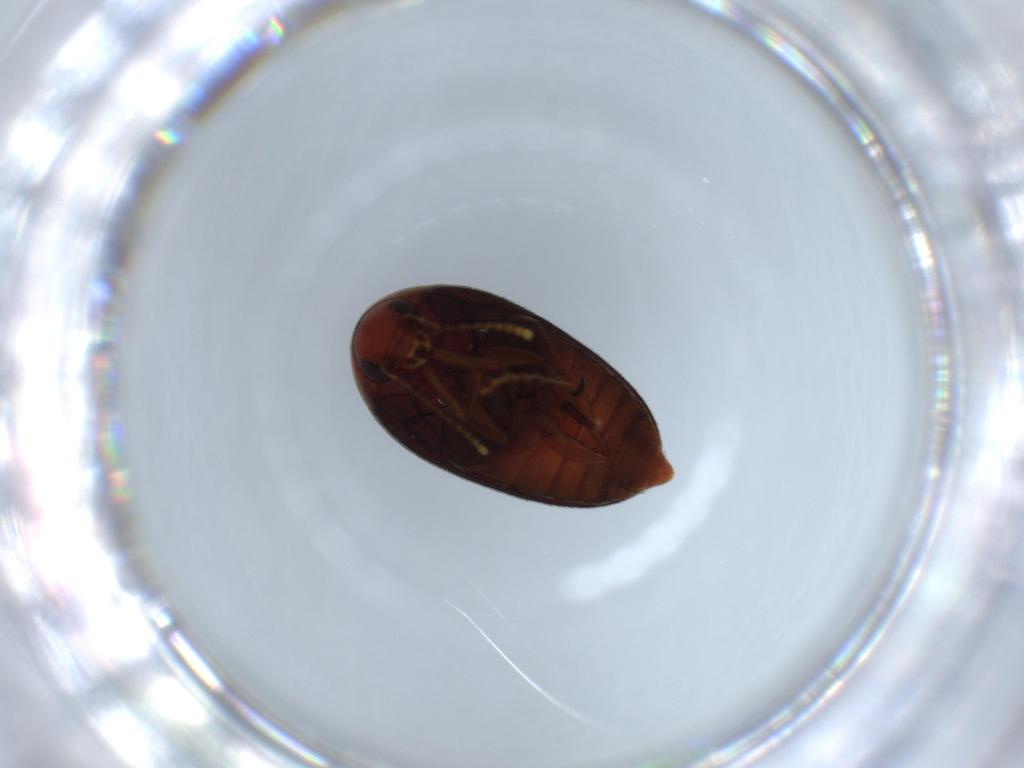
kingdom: Animalia
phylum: Arthropoda
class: Insecta
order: Coleoptera
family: Eucinetidae
